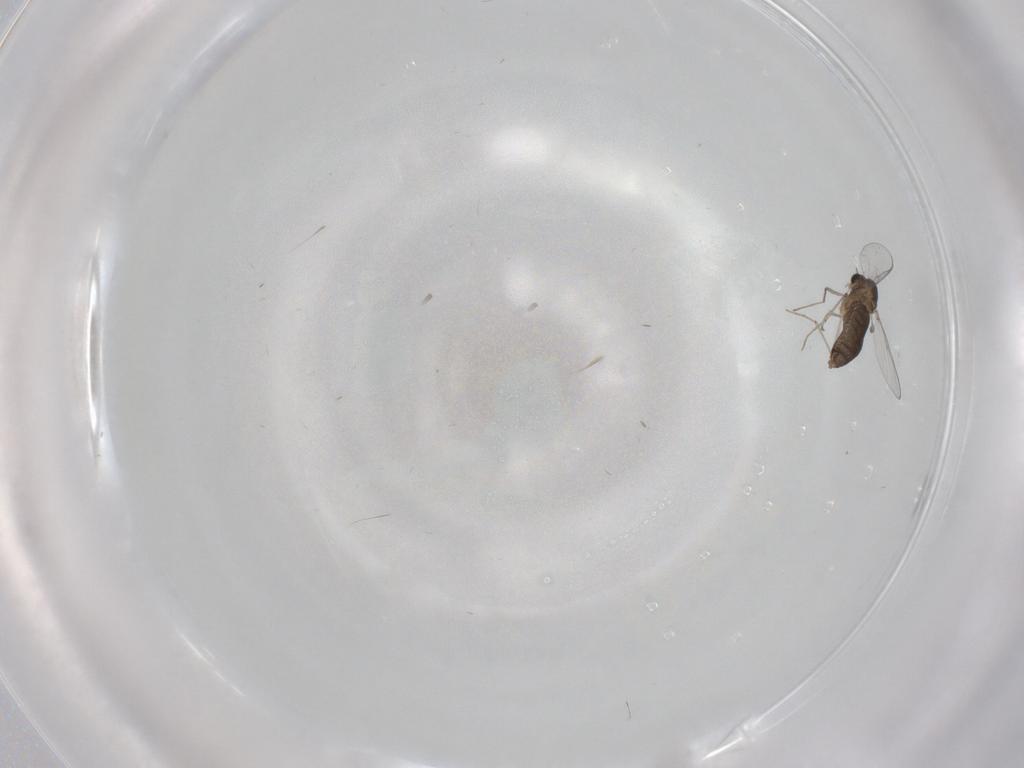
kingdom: Animalia
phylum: Arthropoda
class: Insecta
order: Diptera
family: Chironomidae
